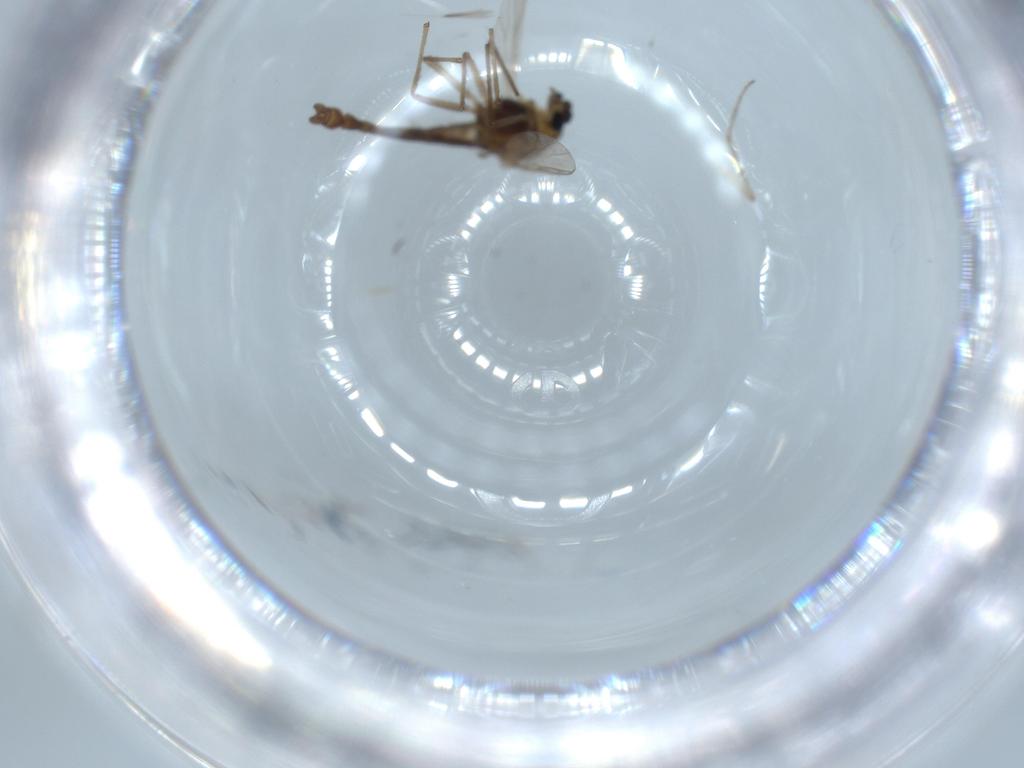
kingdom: Animalia
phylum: Arthropoda
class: Insecta
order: Diptera
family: Chironomidae
